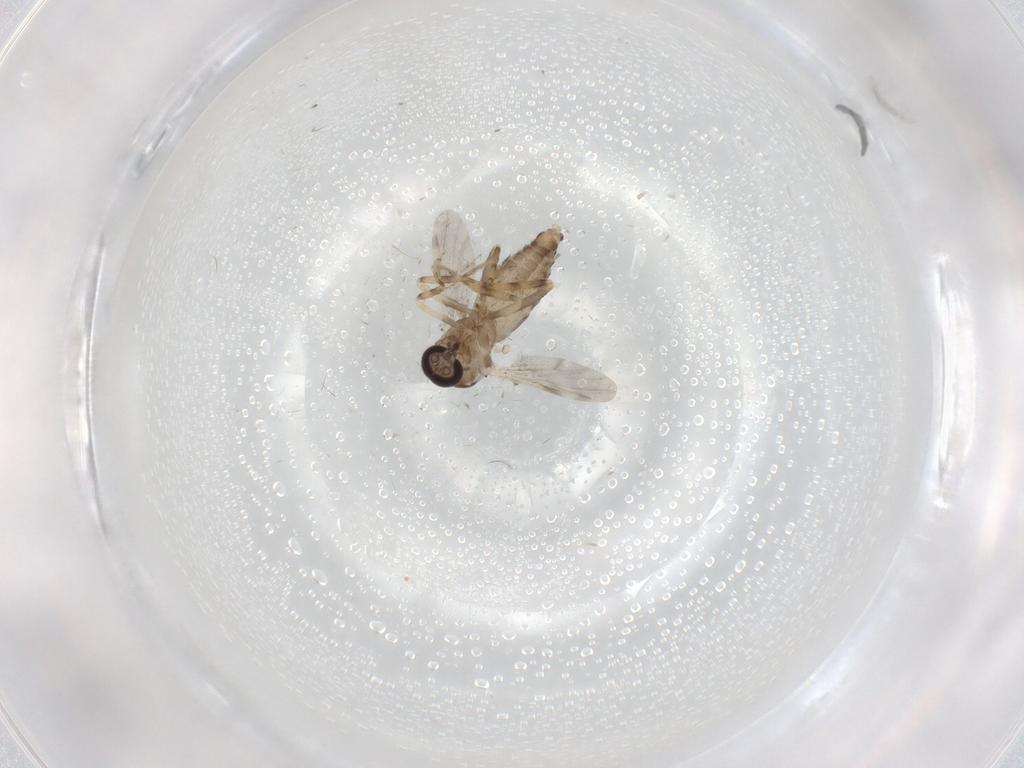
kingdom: Animalia
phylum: Arthropoda
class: Insecta
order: Diptera
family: Ceratopogonidae
